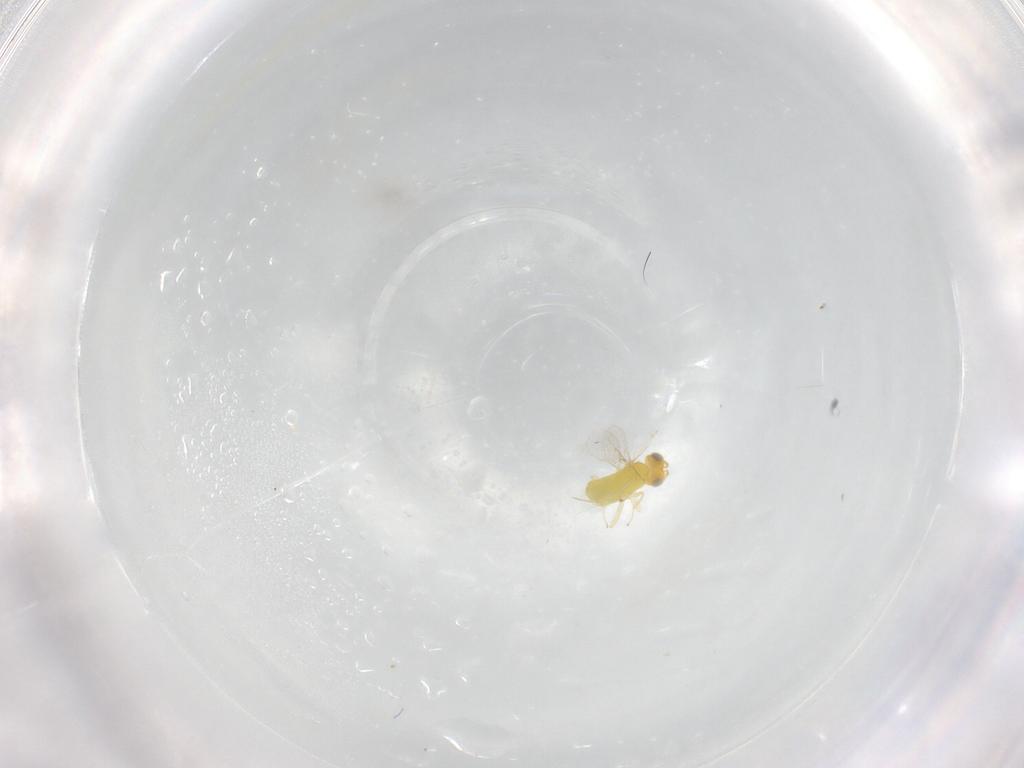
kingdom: Animalia
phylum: Arthropoda
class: Insecta
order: Hymenoptera
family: Aphelinidae
